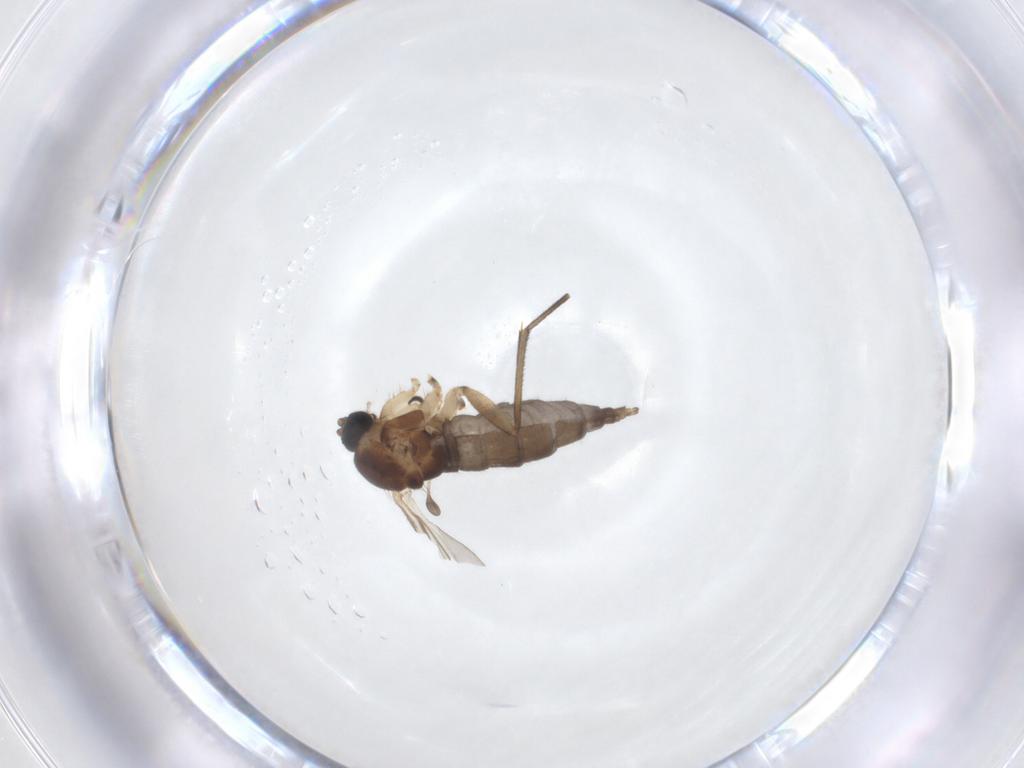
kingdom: Animalia
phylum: Arthropoda
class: Insecta
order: Diptera
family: Sciaridae
